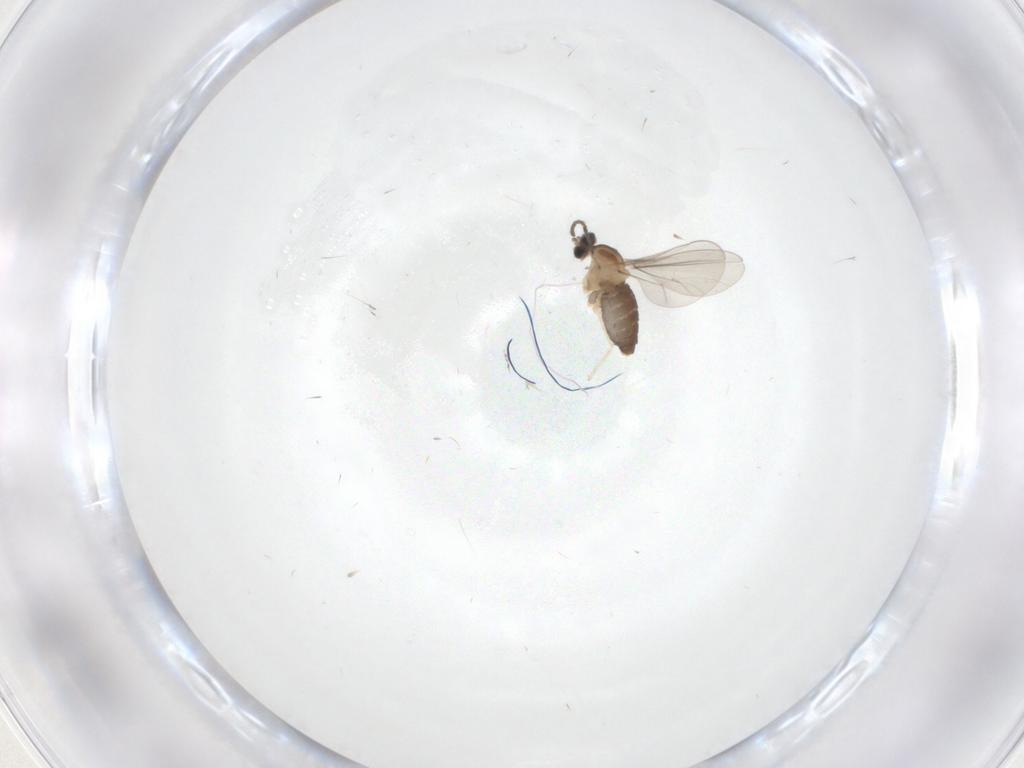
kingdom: Animalia
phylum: Arthropoda
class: Insecta
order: Diptera
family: Cecidomyiidae
